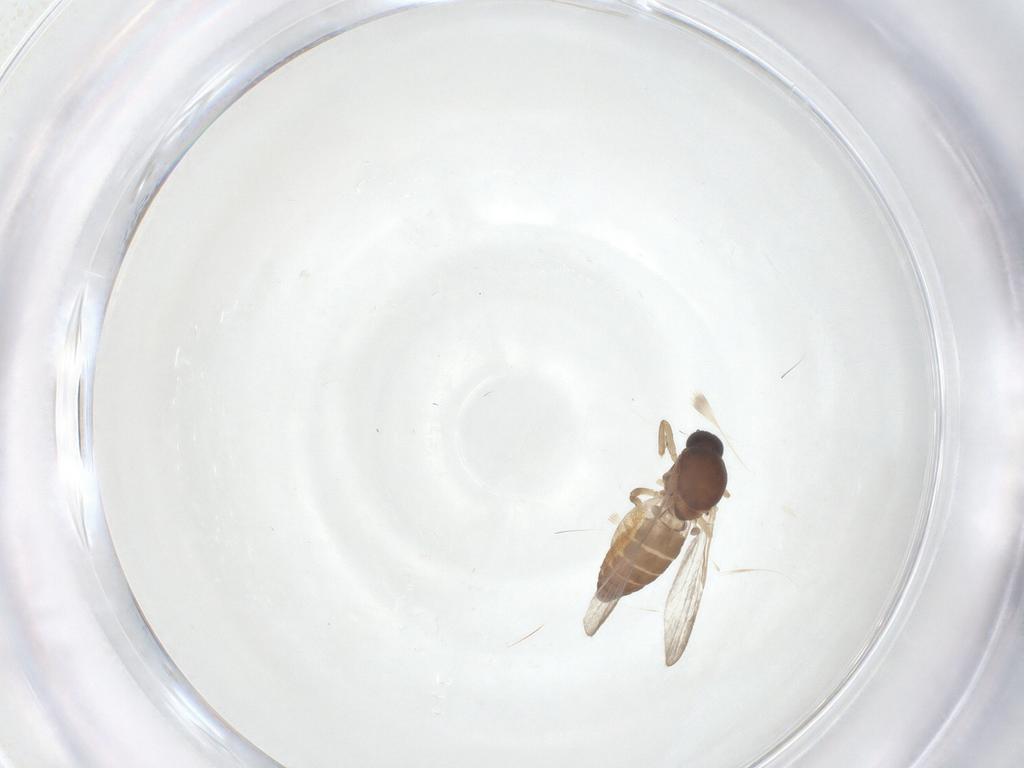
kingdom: Animalia
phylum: Arthropoda
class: Insecta
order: Diptera
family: Ceratopogonidae
